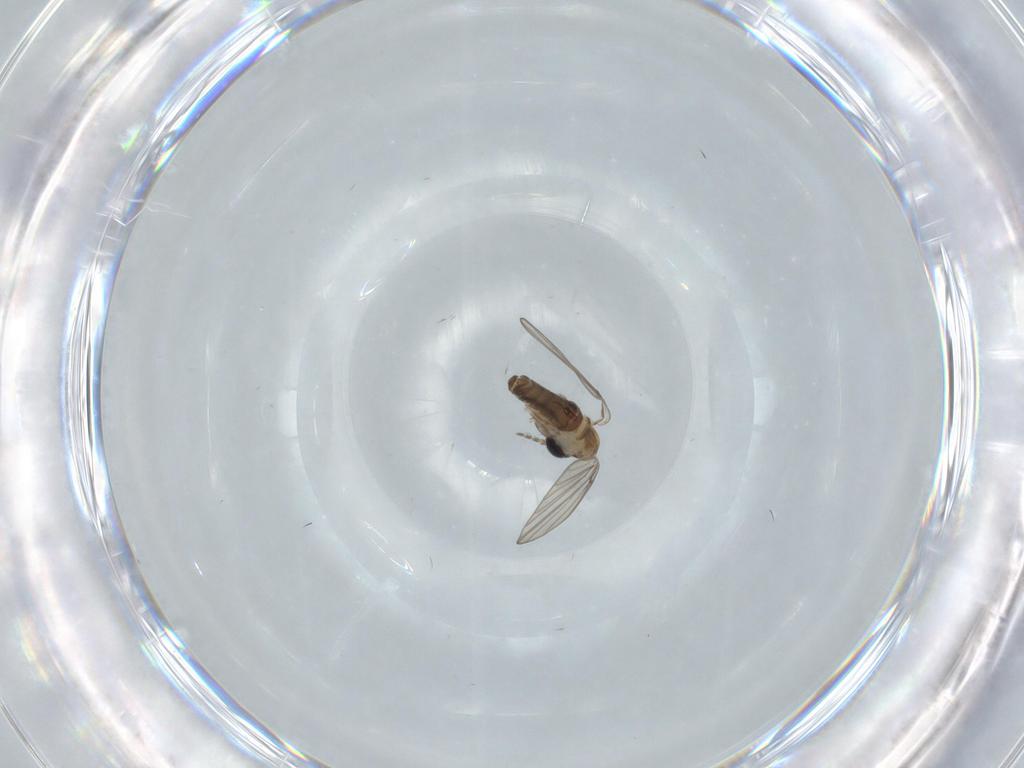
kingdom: Animalia
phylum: Arthropoda
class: Insecta
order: Diptera
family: Psychodidae
